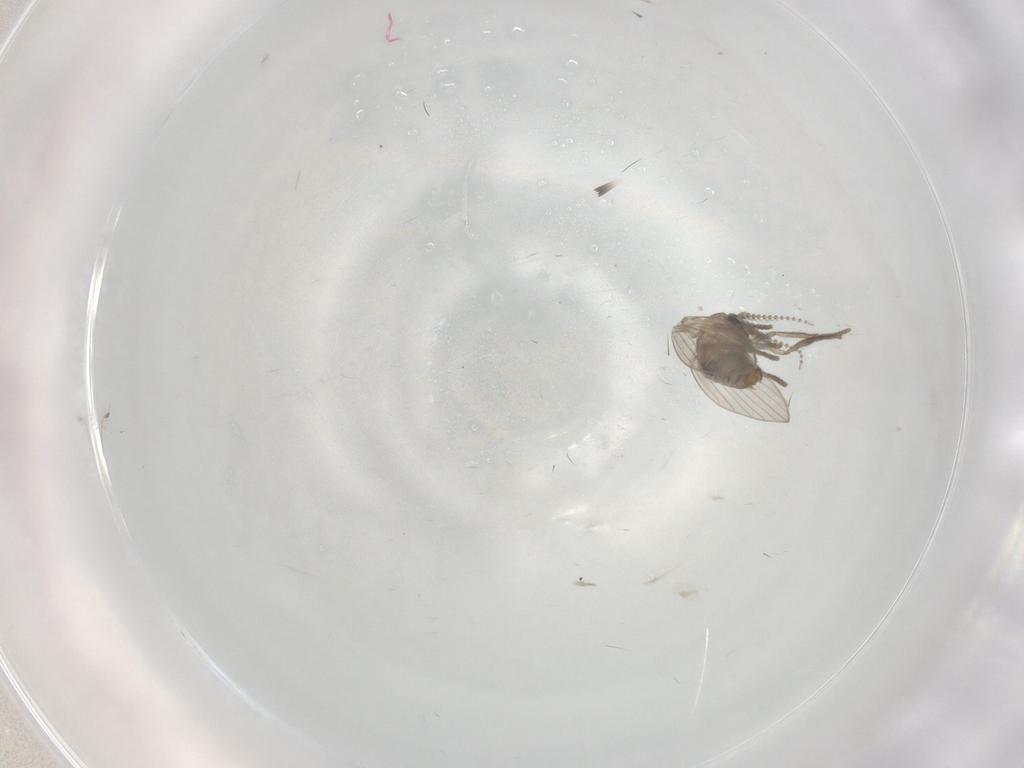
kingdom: Animalia
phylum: Arthropoda
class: Insecta
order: Diptera
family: Psychodidae
